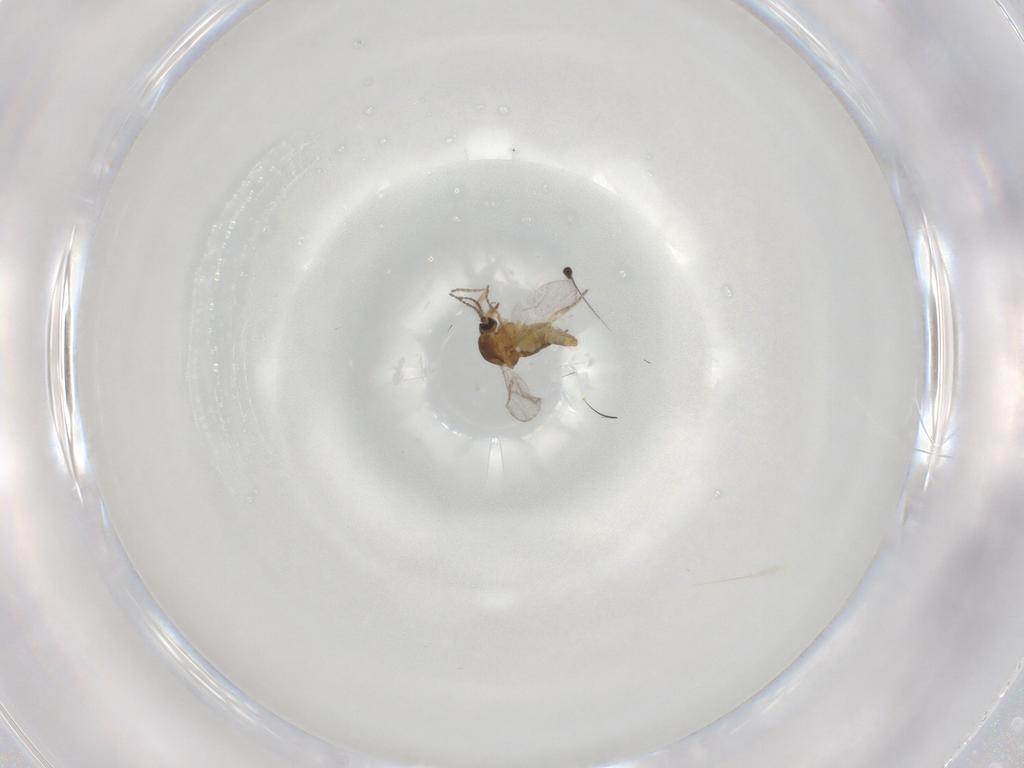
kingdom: Animalia
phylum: Arthropoda
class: Insecta
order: Diptera
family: Ceratopogonidae
